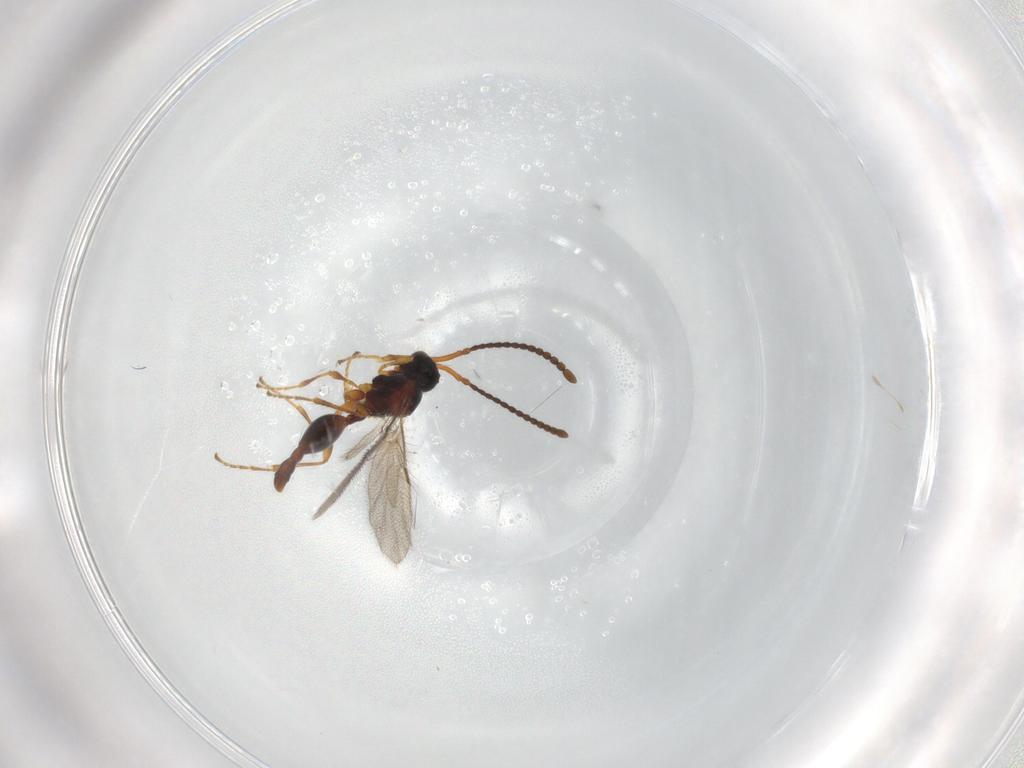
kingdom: Animalia
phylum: Arthropoda
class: Insecta
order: Hymenoptera
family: Diapriidae
